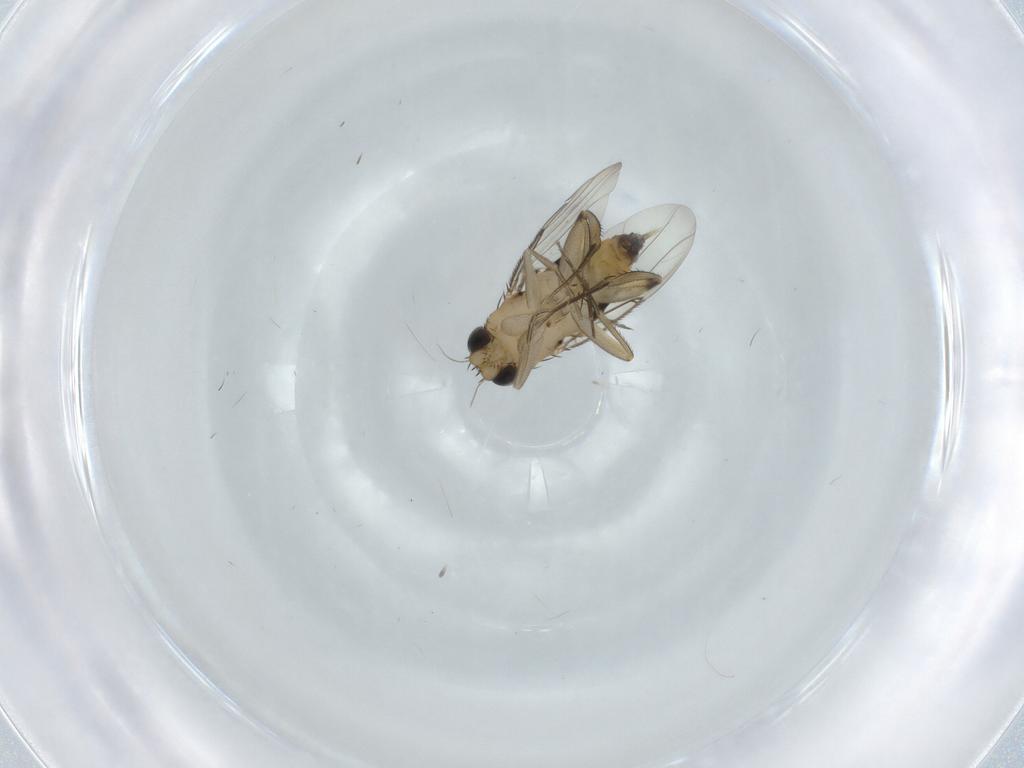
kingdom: Animalia
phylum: Arthropoda
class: Insecta
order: Diptera
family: Phoridae
